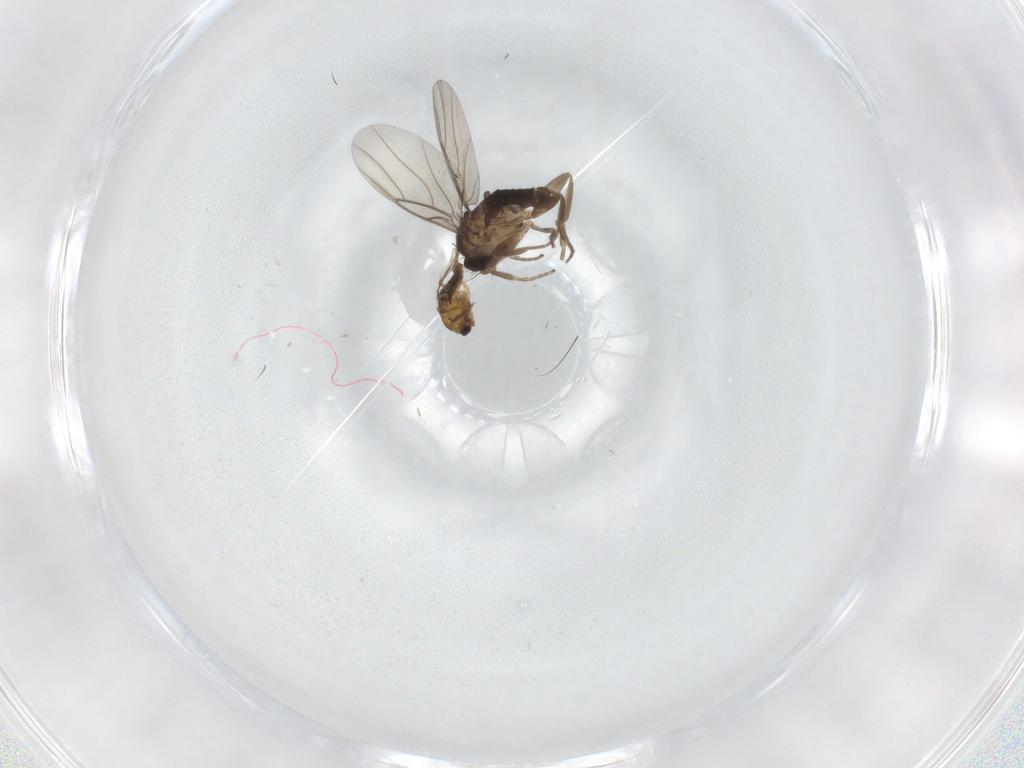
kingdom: Animalia
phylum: Arthropoda
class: Insecta
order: Diptera
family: Phoridae
